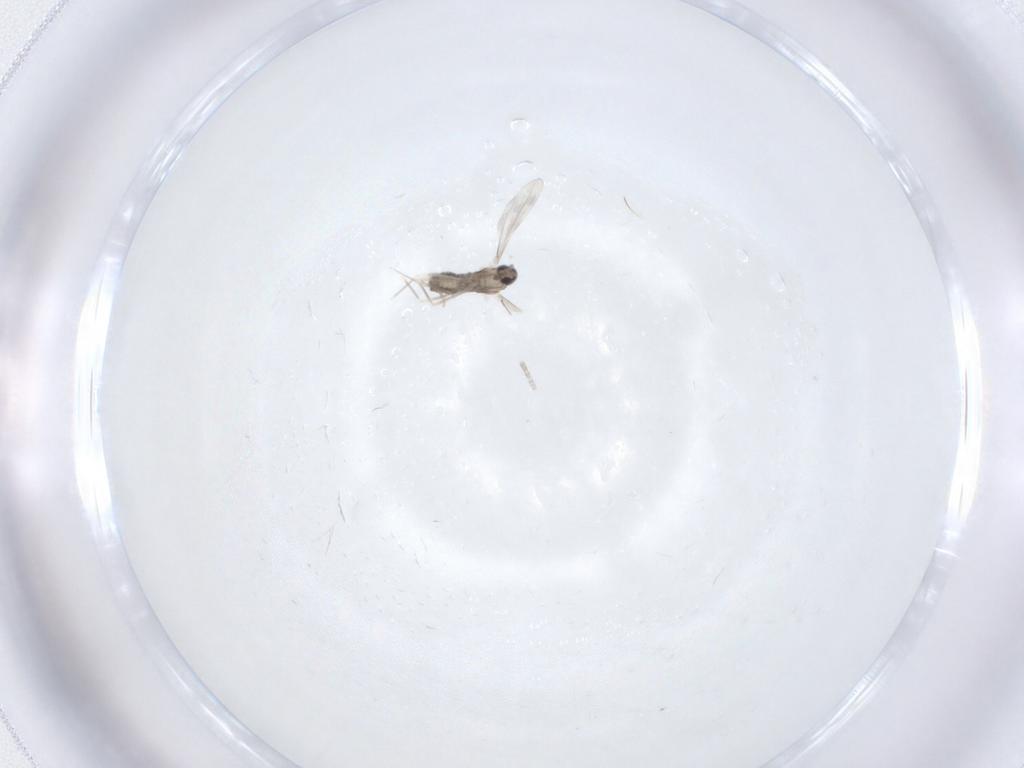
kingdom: Animalia
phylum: Arthropoda
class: Insecta
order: Diptera
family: Cecidomyiidae
